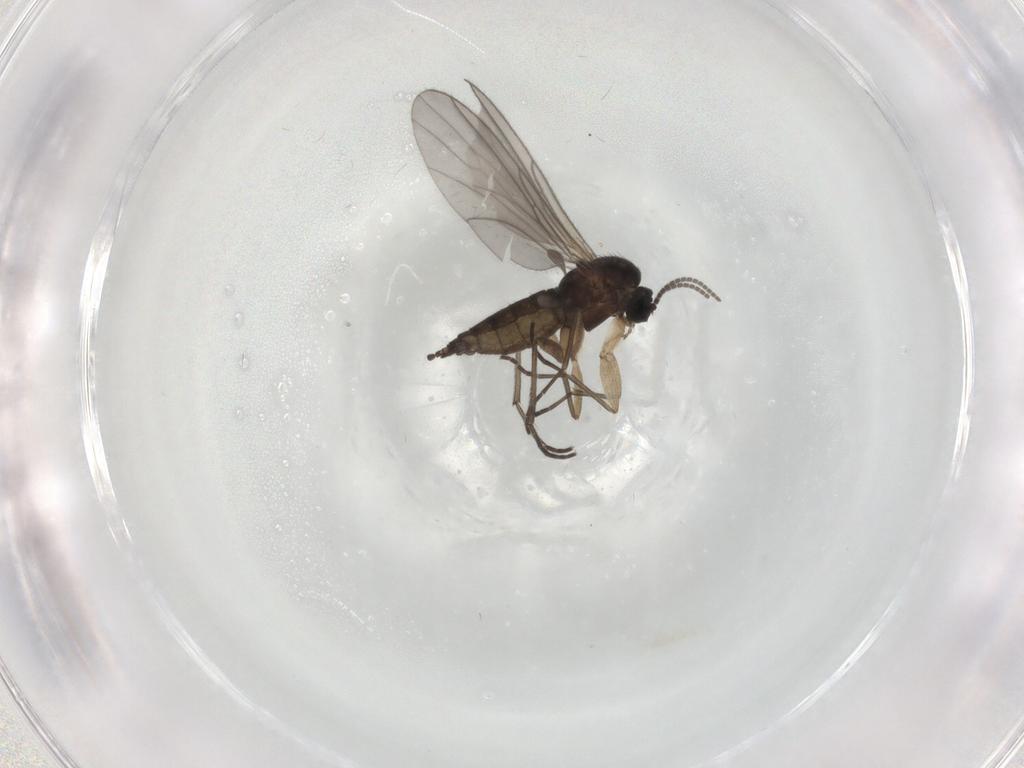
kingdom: Animalia
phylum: Arthropoda
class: Insecta
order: Diptera
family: Sciaridae
